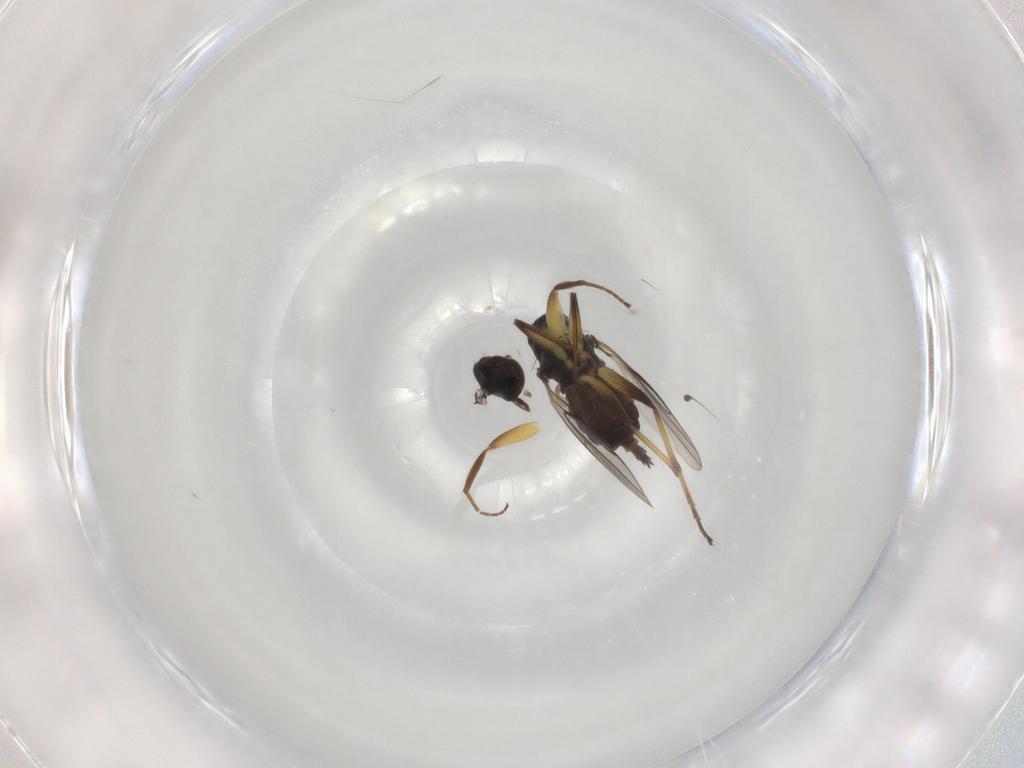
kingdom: Animalia
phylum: Arthropoda
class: Insecta
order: Diptera
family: Hybotidae
